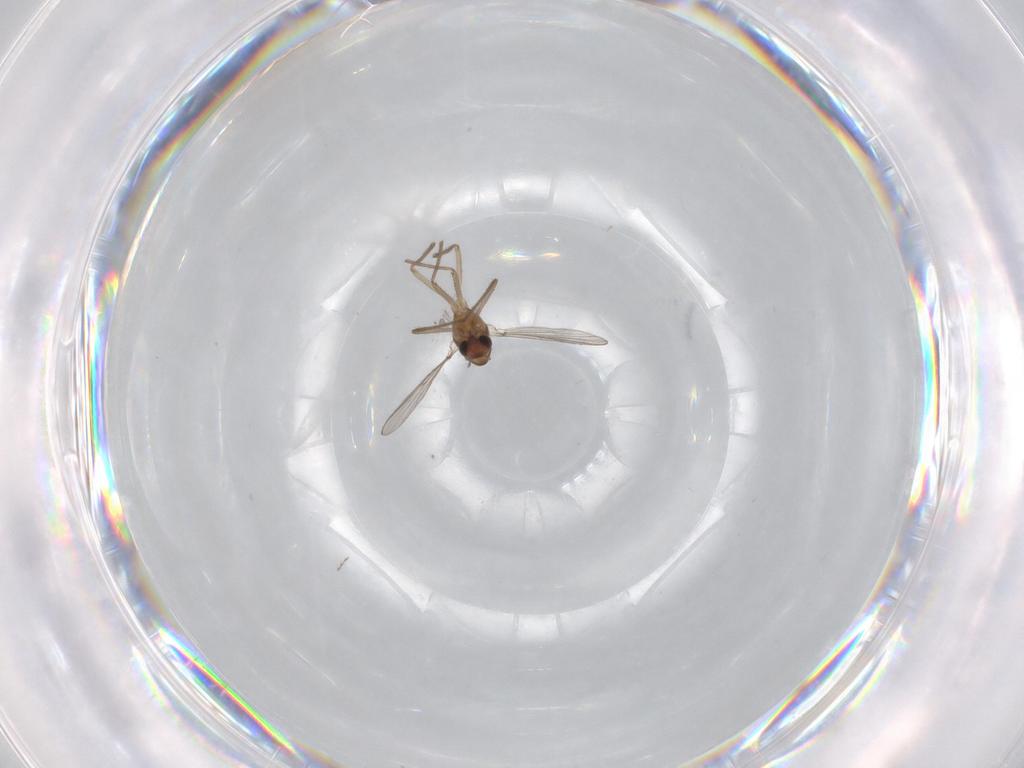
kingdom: Animalia
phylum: Arthropoda
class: Insecta
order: Diptera
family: Chironomidae
